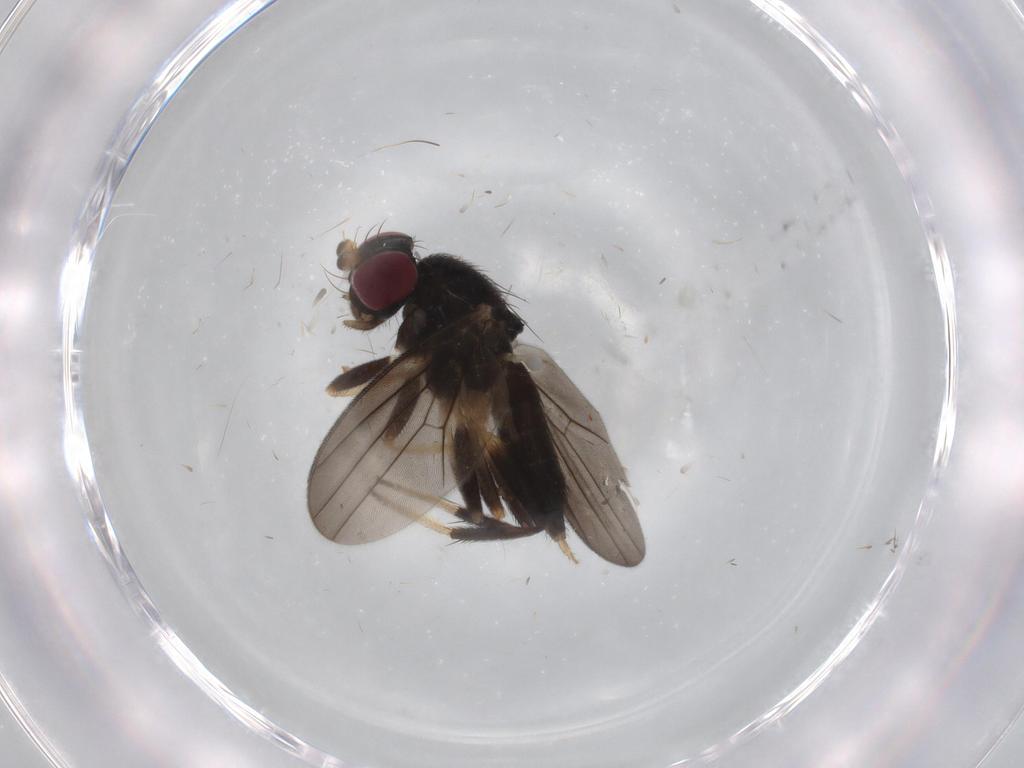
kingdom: Animalia
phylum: Arthropoda
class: Insecta
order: Diptera
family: Clusiidae
